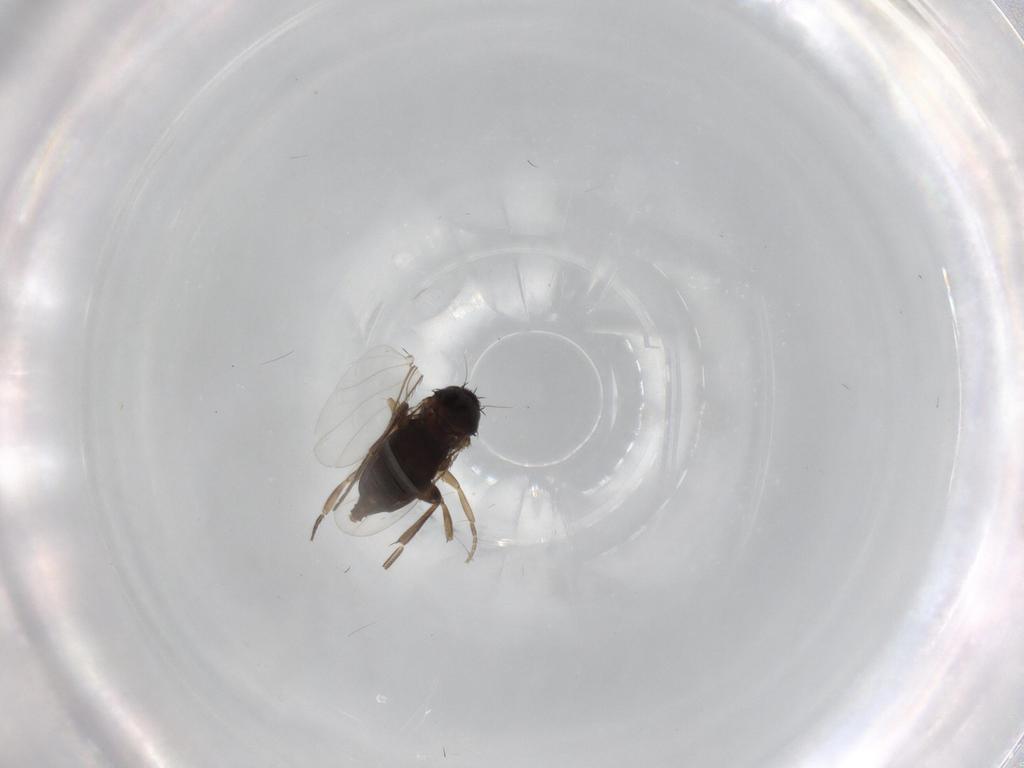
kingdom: Animalia
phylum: Arthropoda
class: Insecta
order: Diptera
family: Phoridae
